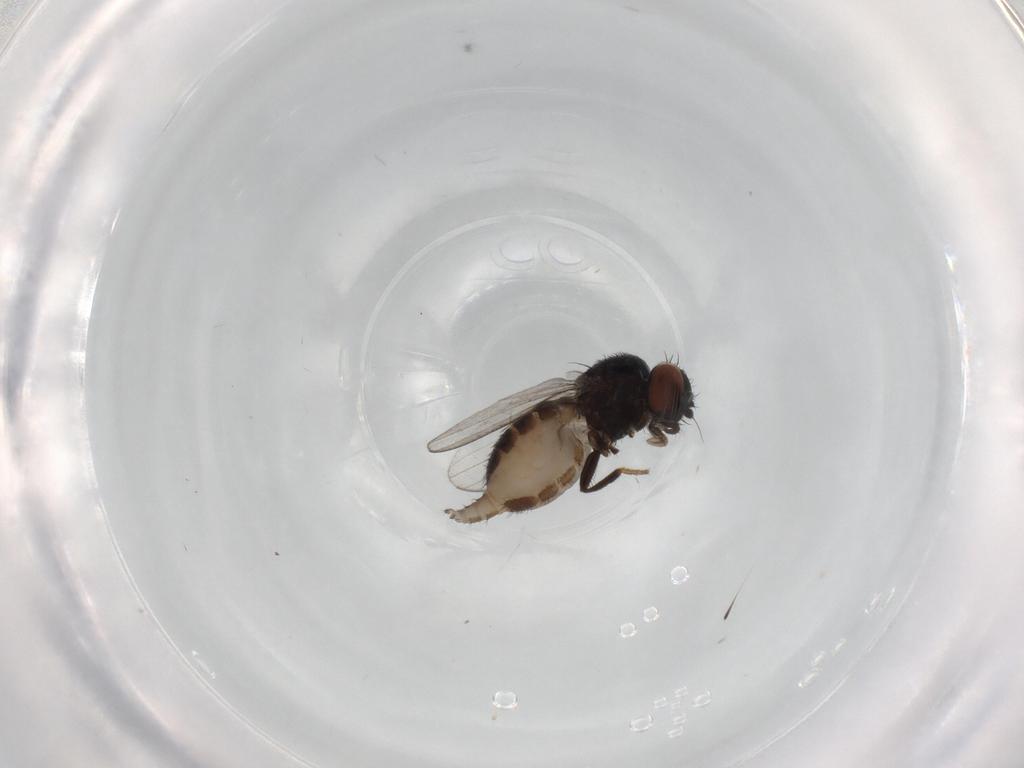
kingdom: Animalia
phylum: Arthropoda
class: Insecta
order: Diptera
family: Milichiidae
